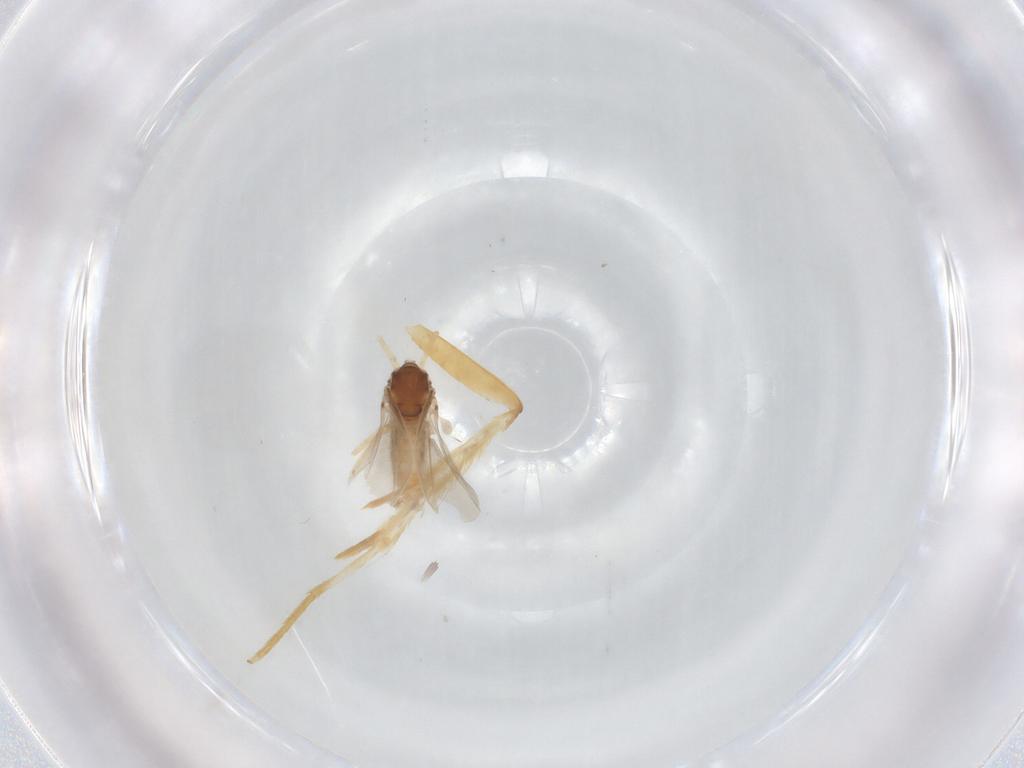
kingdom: Animalia
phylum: Arthropoda
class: Insecta
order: Diptera
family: Cecidomyiidae
